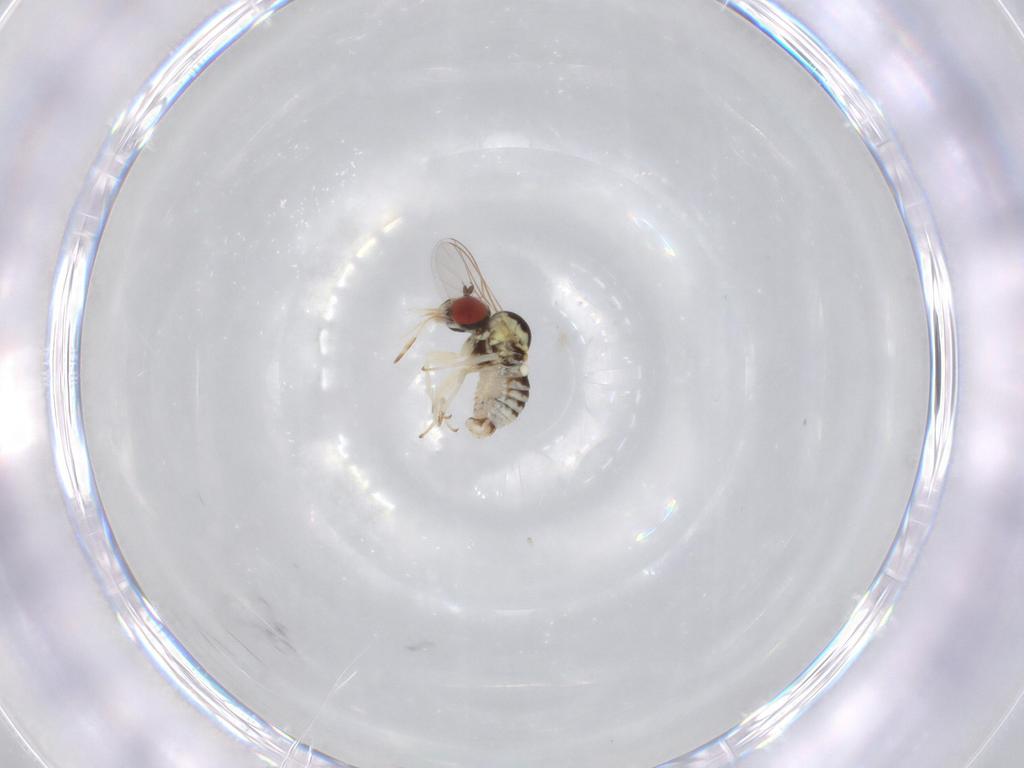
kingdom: Animalia
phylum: Arthropoda
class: Insecta
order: Diptera
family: Bombyliidae
